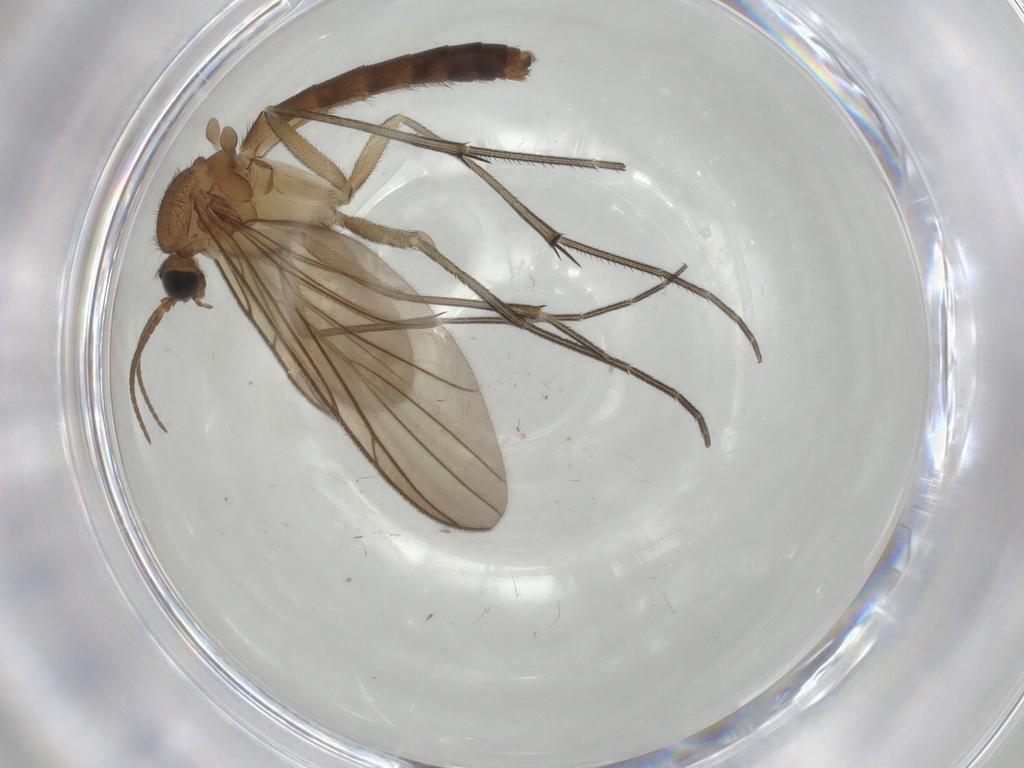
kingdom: Animalia
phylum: Arthropoda
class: Insecta
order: Diptera
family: Keroplatidae
